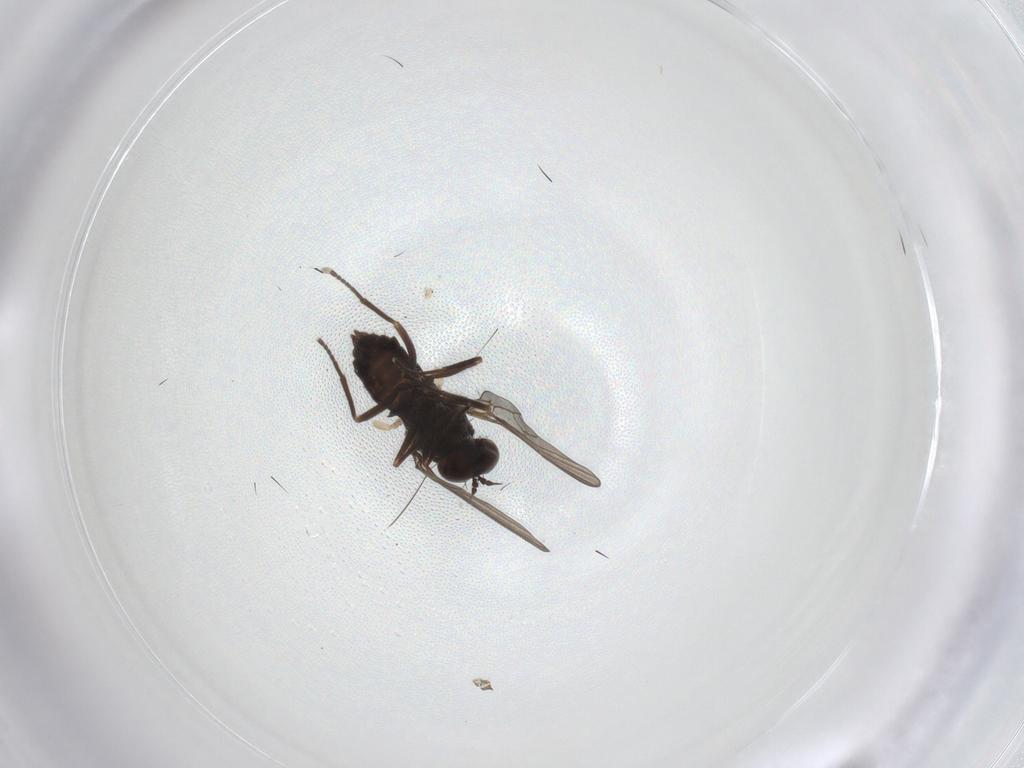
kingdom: Animalia
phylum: Arthropoda
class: Insecta
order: Diptera
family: Dolichopodidae
